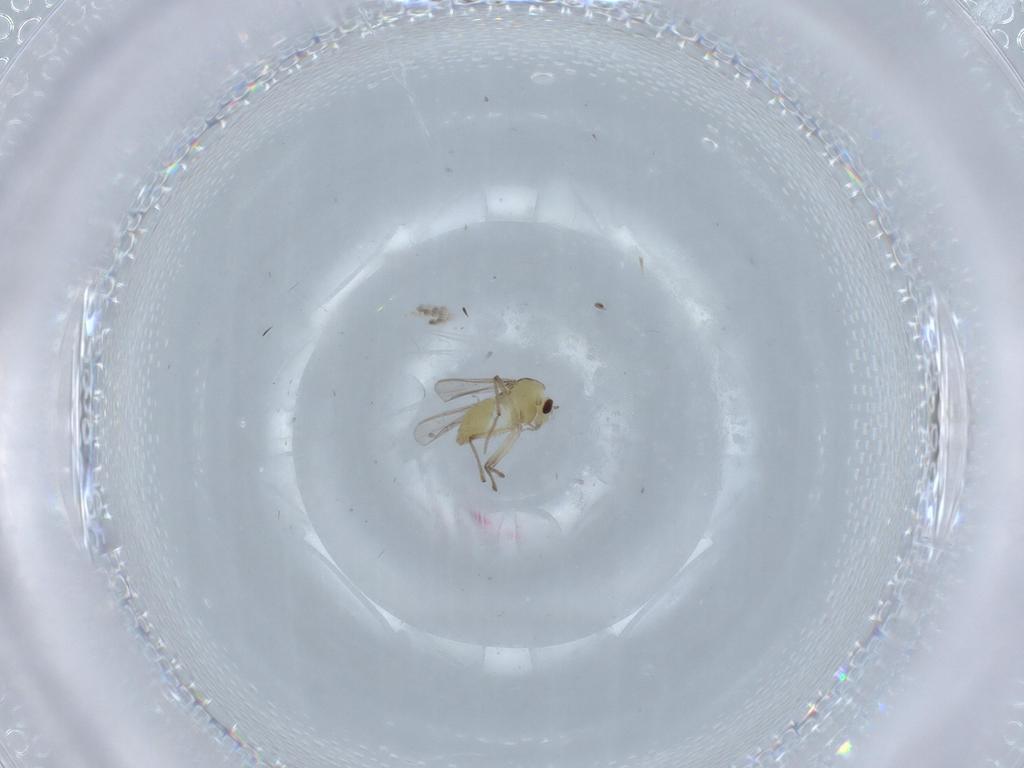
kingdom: Animalia
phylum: Arthropoda
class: Insecta
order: Diptera
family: Chironomidae
